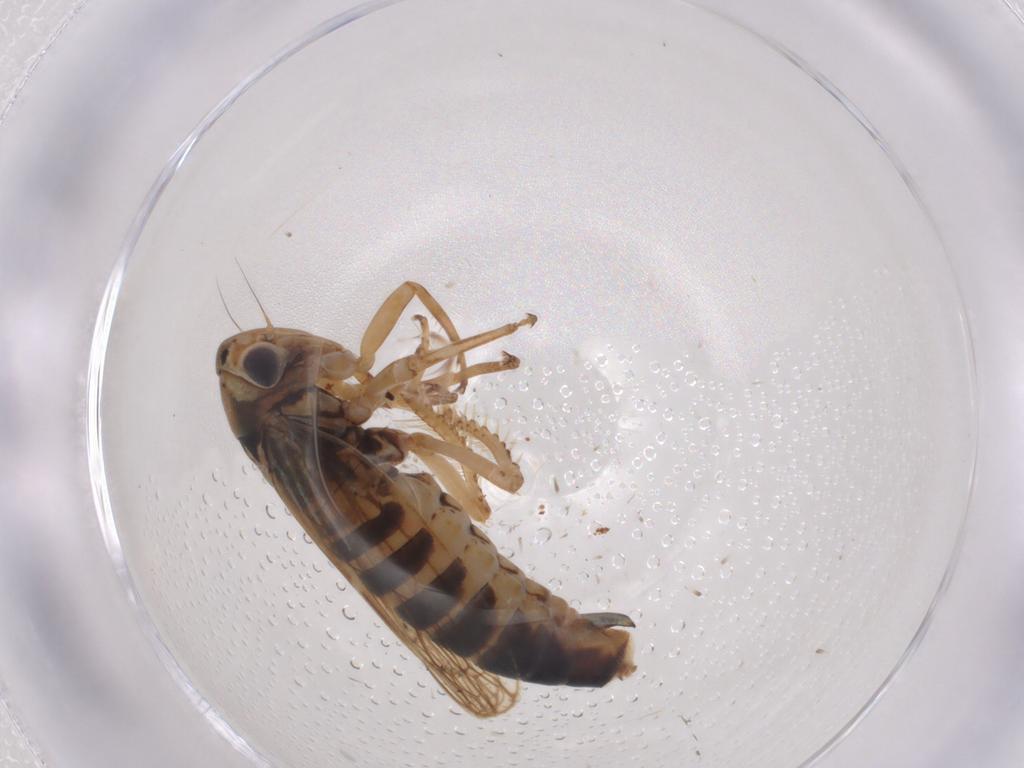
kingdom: Animalia
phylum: Arthropoda
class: Insecta
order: Hemiptera
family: Cicadellidae
